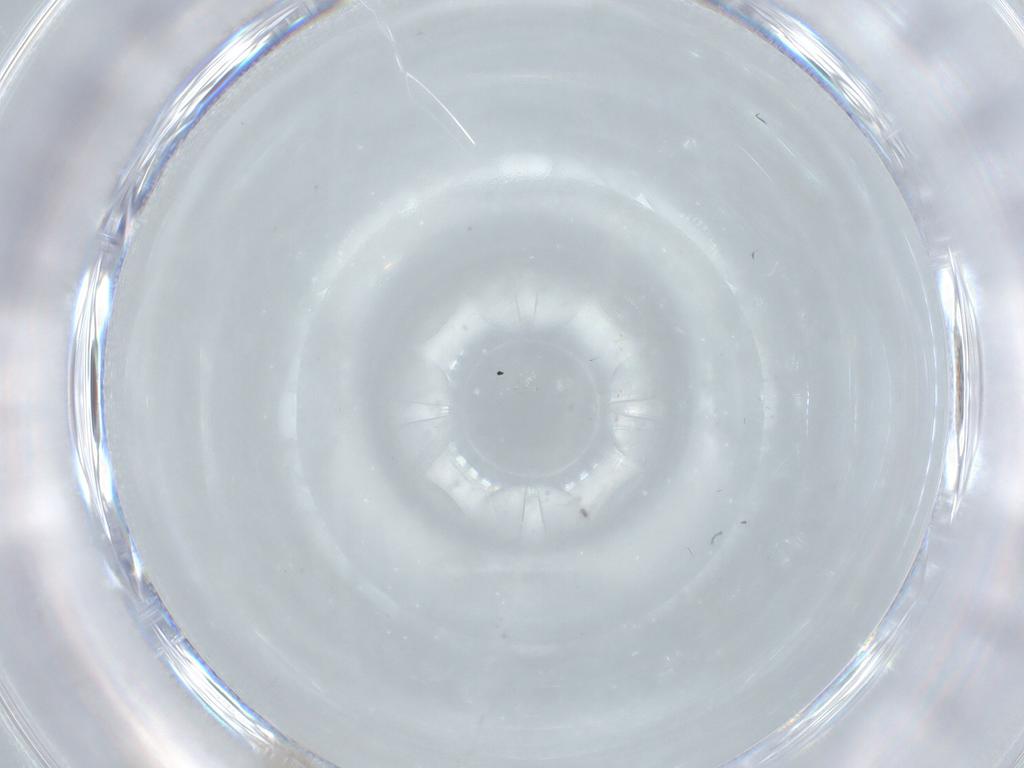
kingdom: Animalia
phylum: Arthropoda
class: Insecta
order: Diptera
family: Cecidomyiidae
